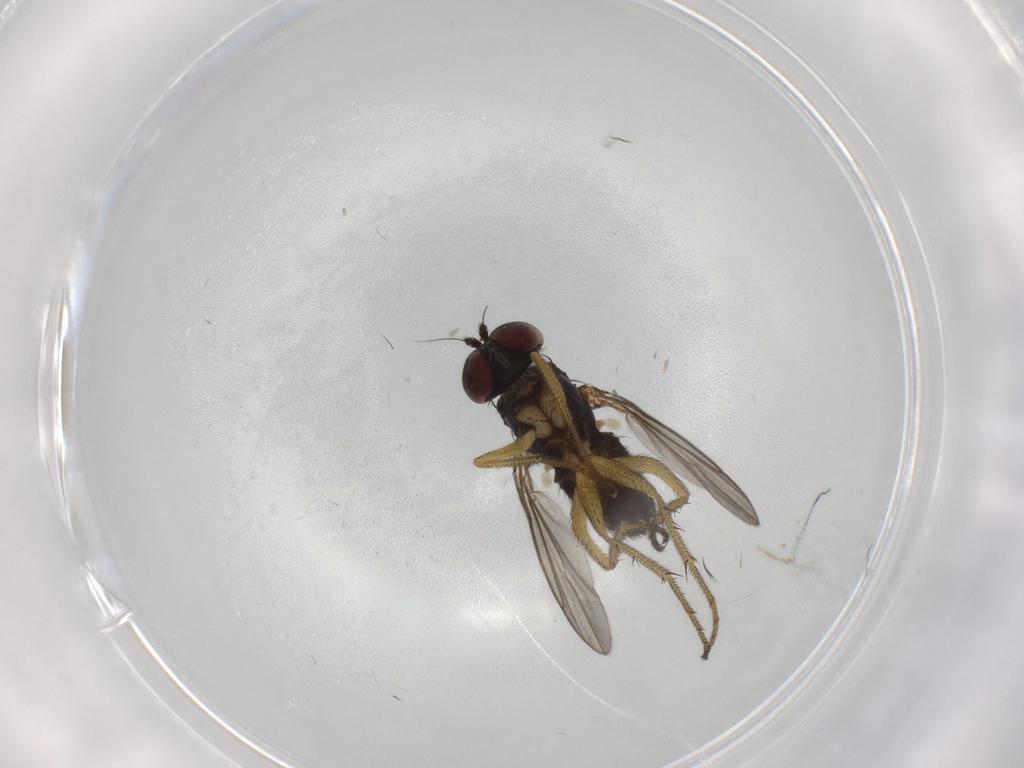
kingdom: Animalia
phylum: Arthropoda
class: Insecta
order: Diptera
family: Dolichopodidae
